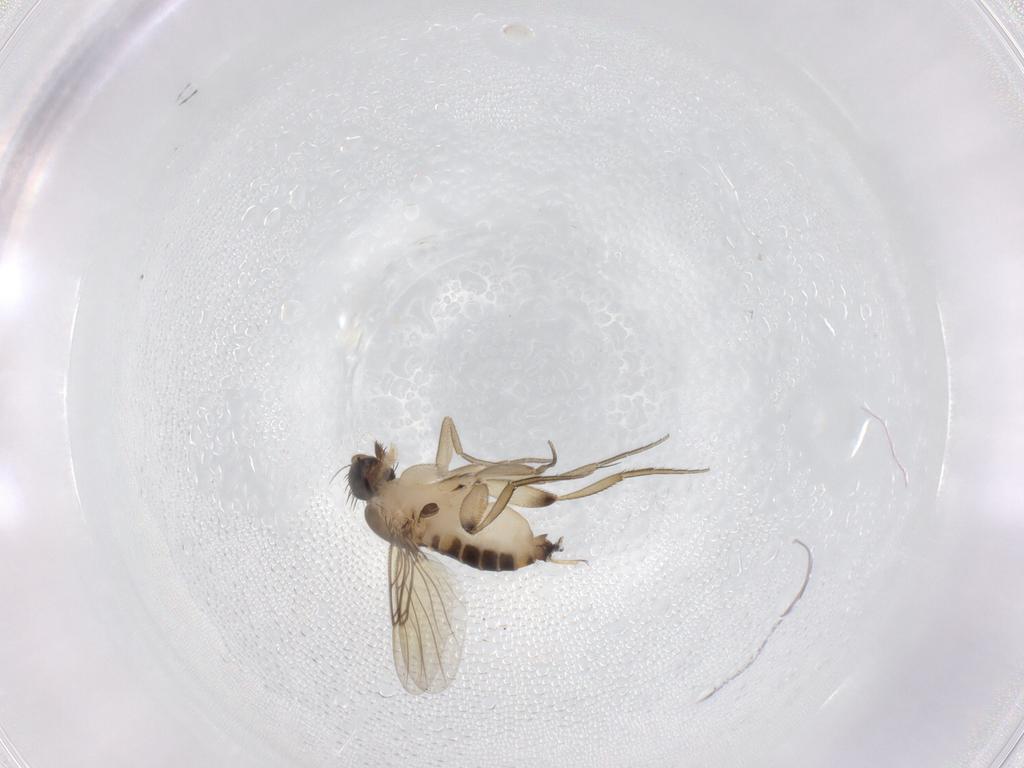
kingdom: Animalia
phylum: Arthropoda
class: Insecta
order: Diptera
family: Phoridae
